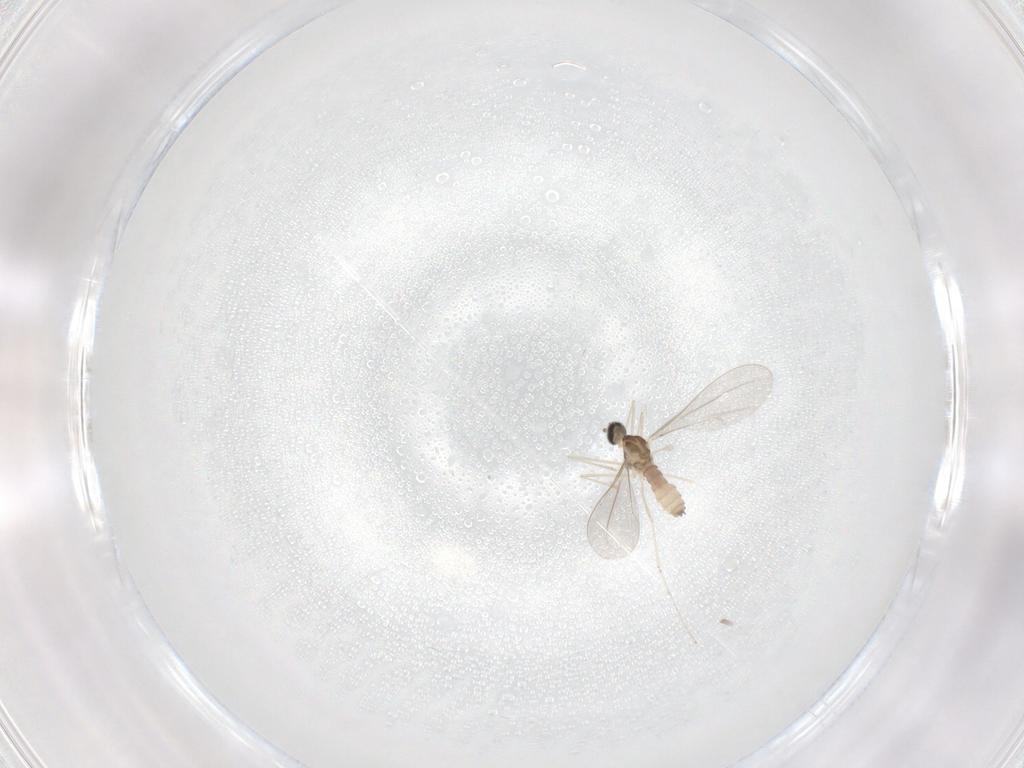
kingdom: Animalia
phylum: Arthropoda
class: Insecta
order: Diptera
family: Cecidomyiidae
